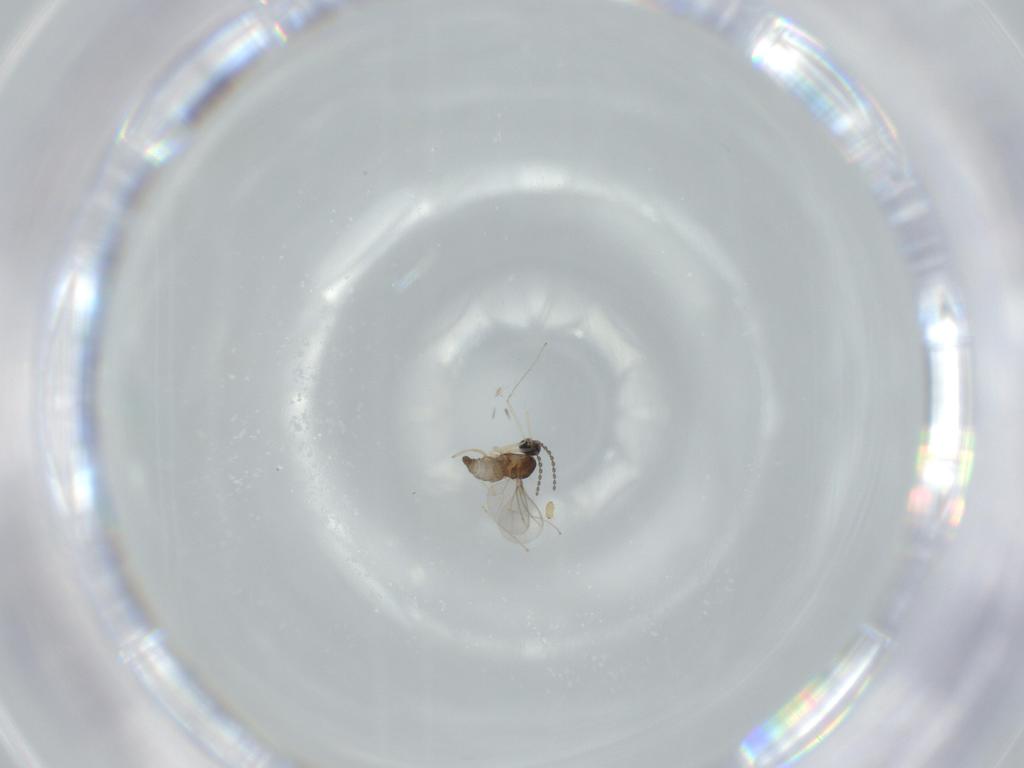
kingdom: Animalia
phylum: Arthropoda
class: Insecta
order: Diptera
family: Cecidomyiidae
